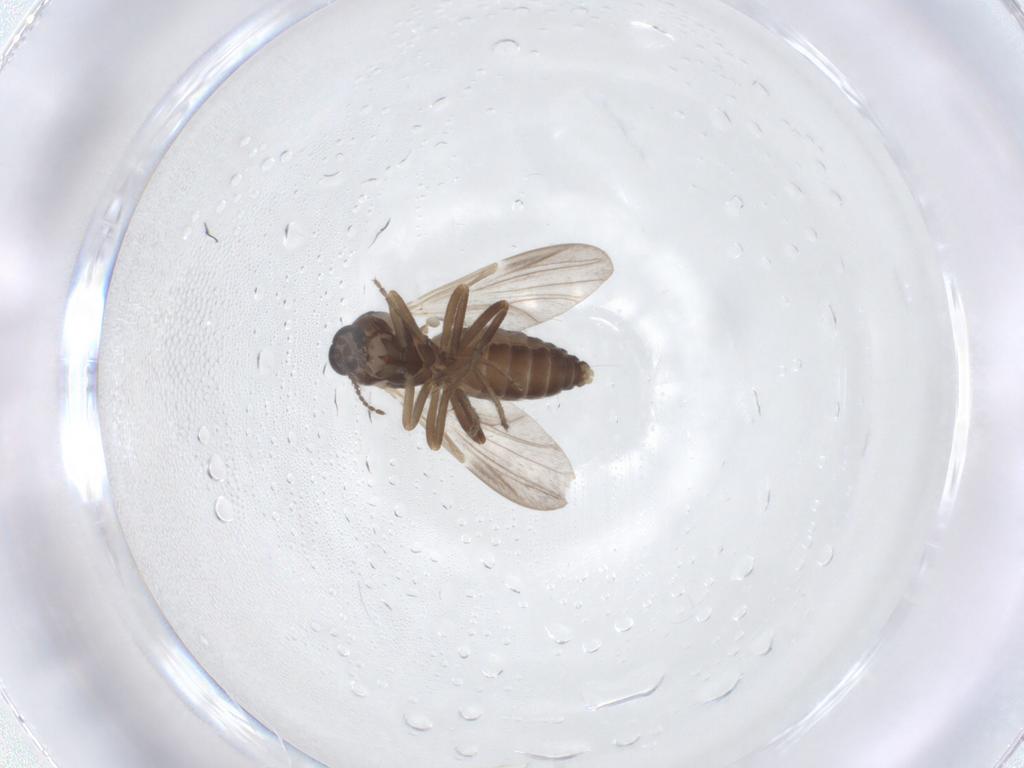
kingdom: Animalia
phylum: Arthropoda
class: Insecta
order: Diptera
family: Ceratopogonidae
